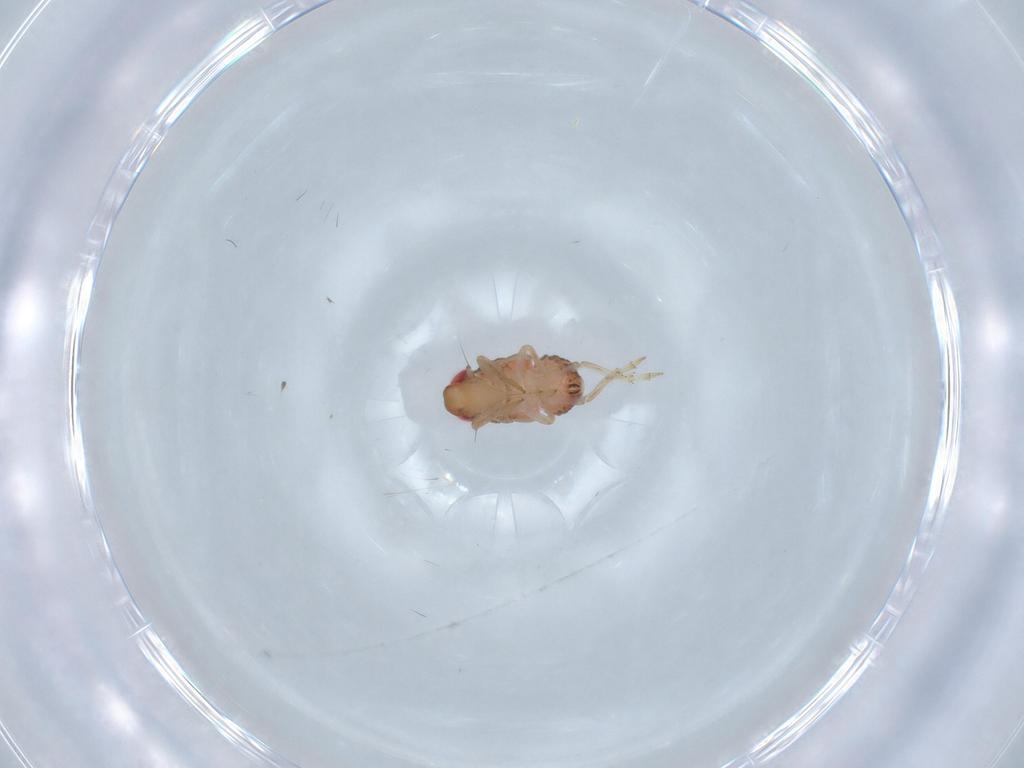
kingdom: Animalia
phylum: Arthropoda
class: Insecta
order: Hemiptera
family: Issidae
